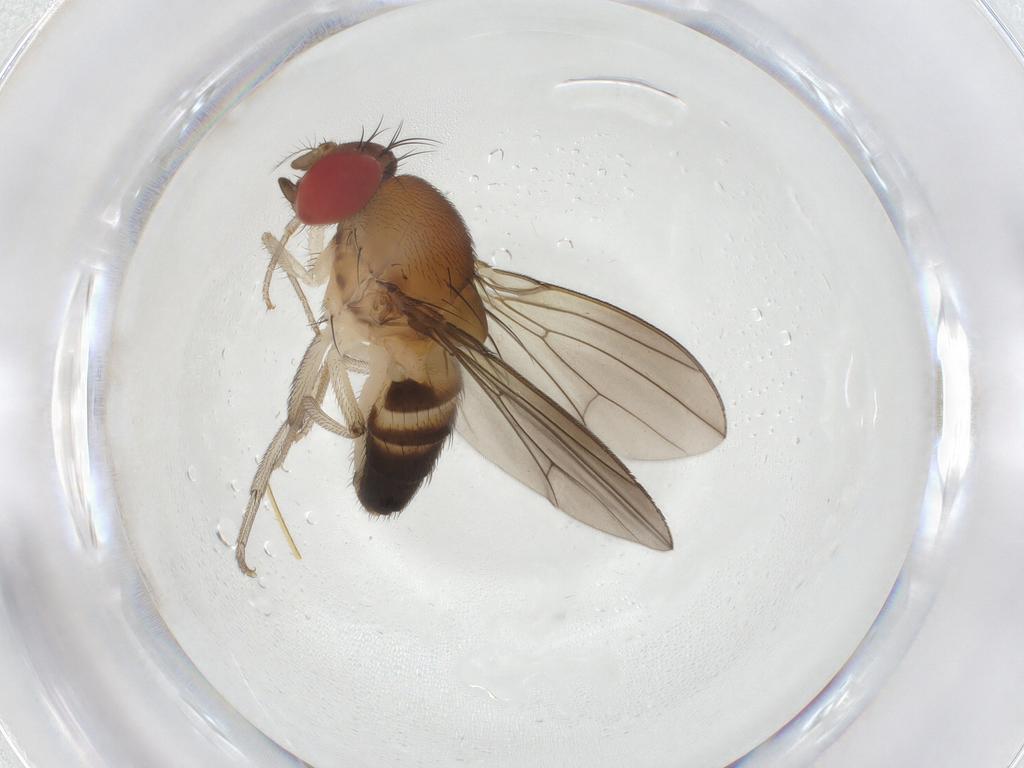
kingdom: Animalia
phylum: Arthropoda
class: Insecta
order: Diptera
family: Drosophilidae
